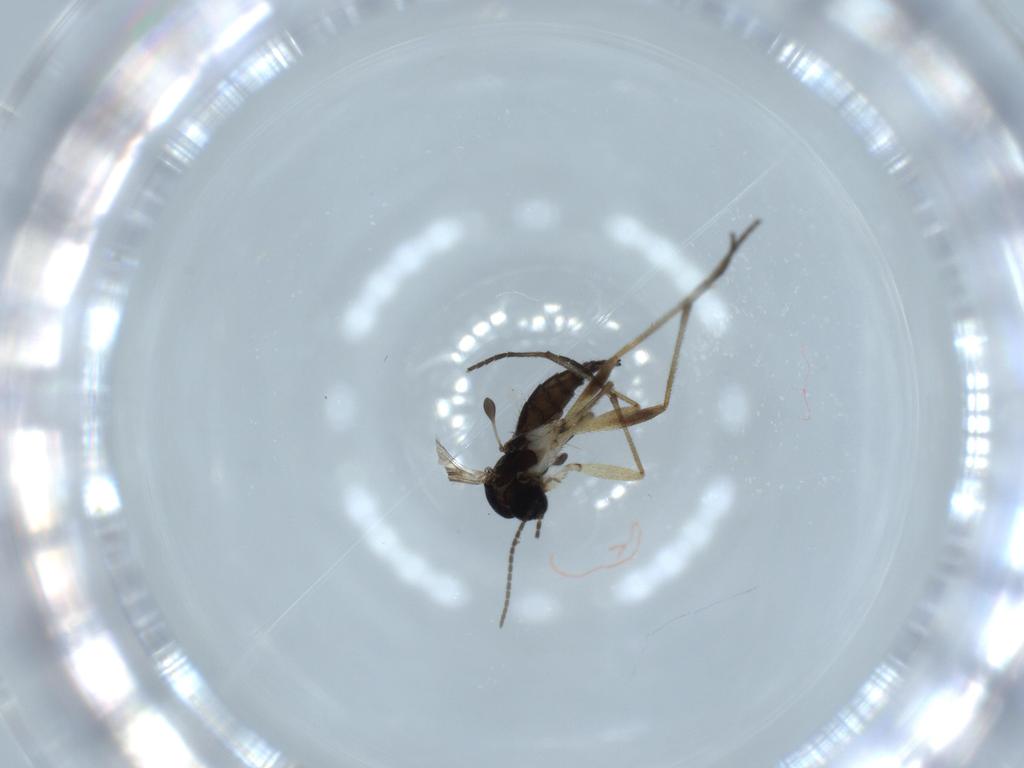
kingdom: Animalia
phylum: Arthropoda
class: Insecta
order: Diptera
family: Sciaridae
